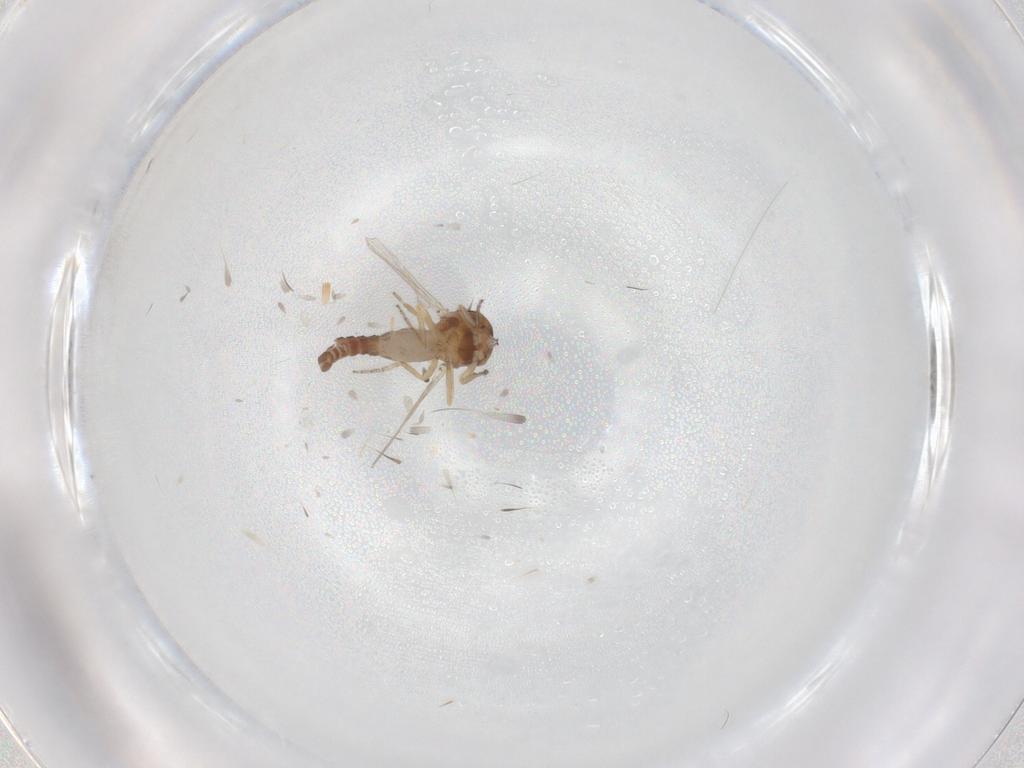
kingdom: Animalia
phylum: Arthropoda
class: Insecta
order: Diptera
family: Ceratopogonidae
